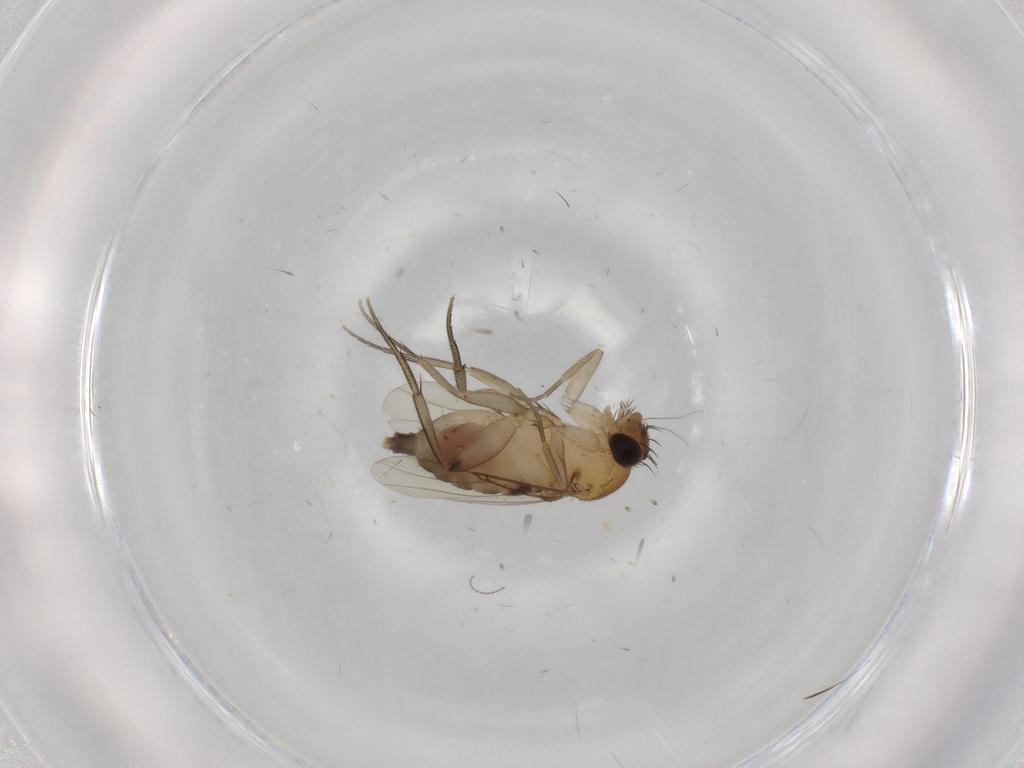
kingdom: Animalia
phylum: Arthropoda
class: Insecta
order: Diptera
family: Phoridae
